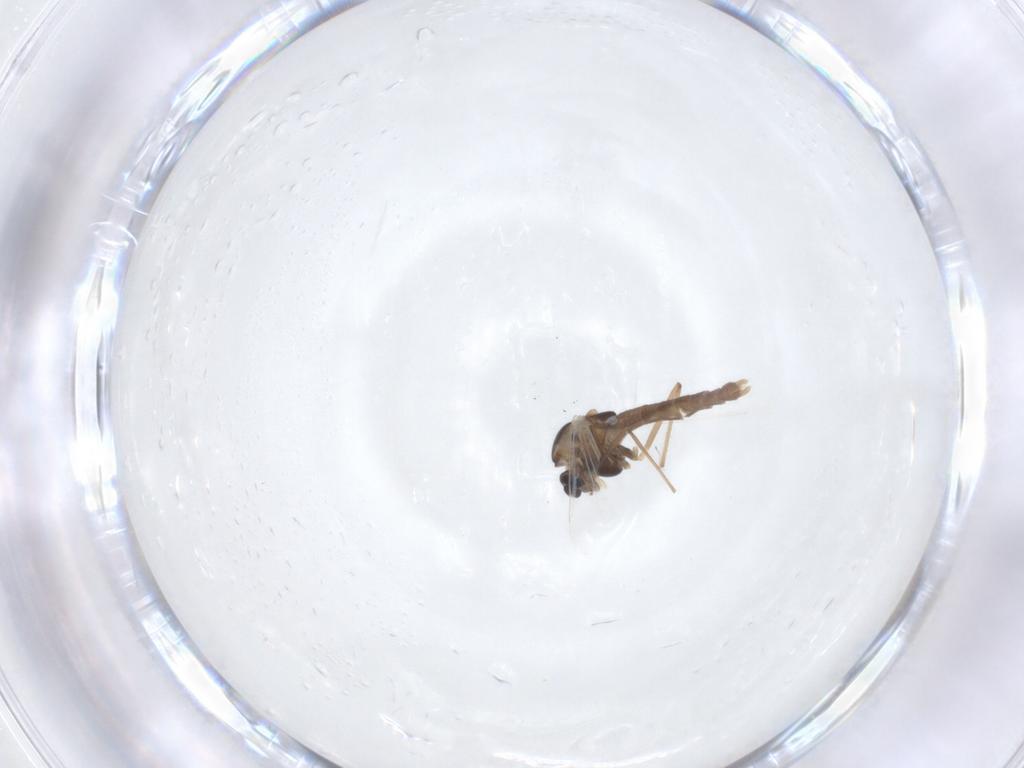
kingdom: Animalia
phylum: Arthropoda
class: Insecta
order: Diptera
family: Chironomidae
